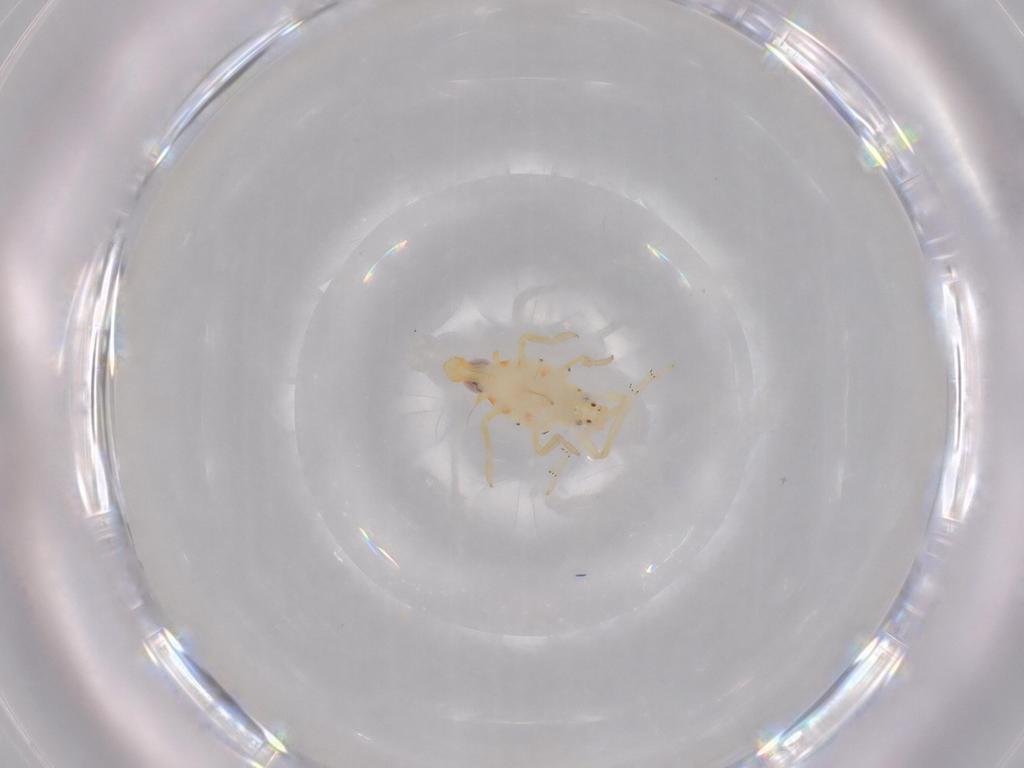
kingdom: Animalia
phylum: Arthropoda
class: Insecta
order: Hemiptera
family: Tropiduchidae
